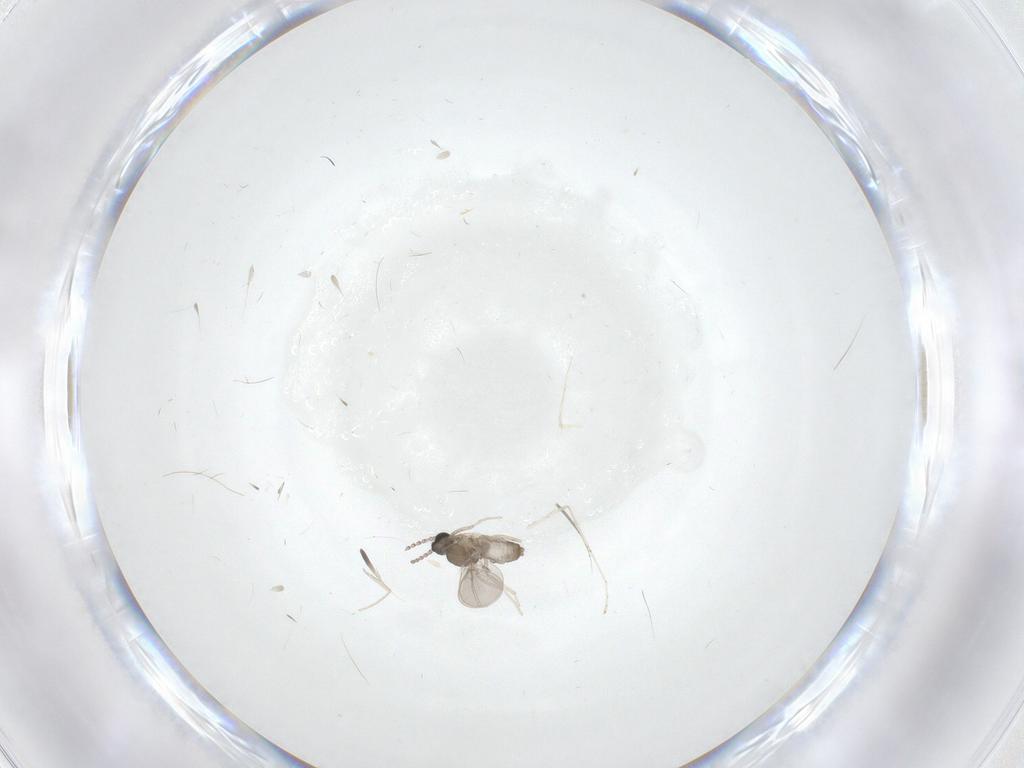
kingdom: Animalia
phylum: Arthropoda
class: Insecta
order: Diptera
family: Cecidomyiidae
